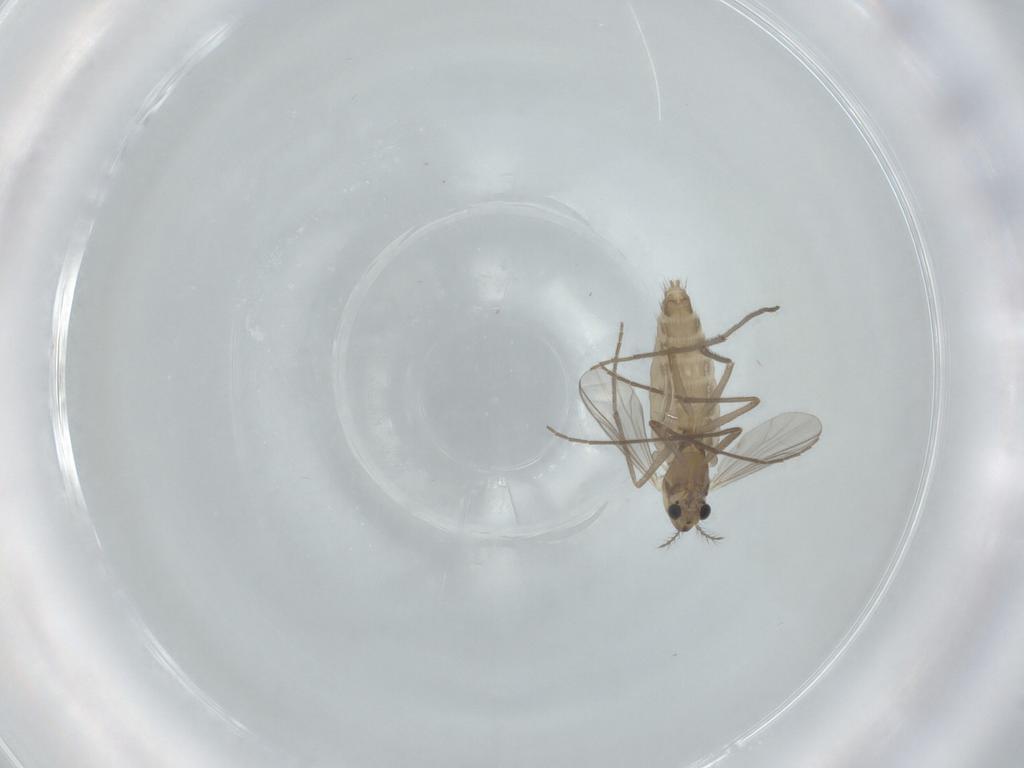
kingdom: Animalia
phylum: Arthropoda
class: Insecta
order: Diptera
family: Chironomidae
